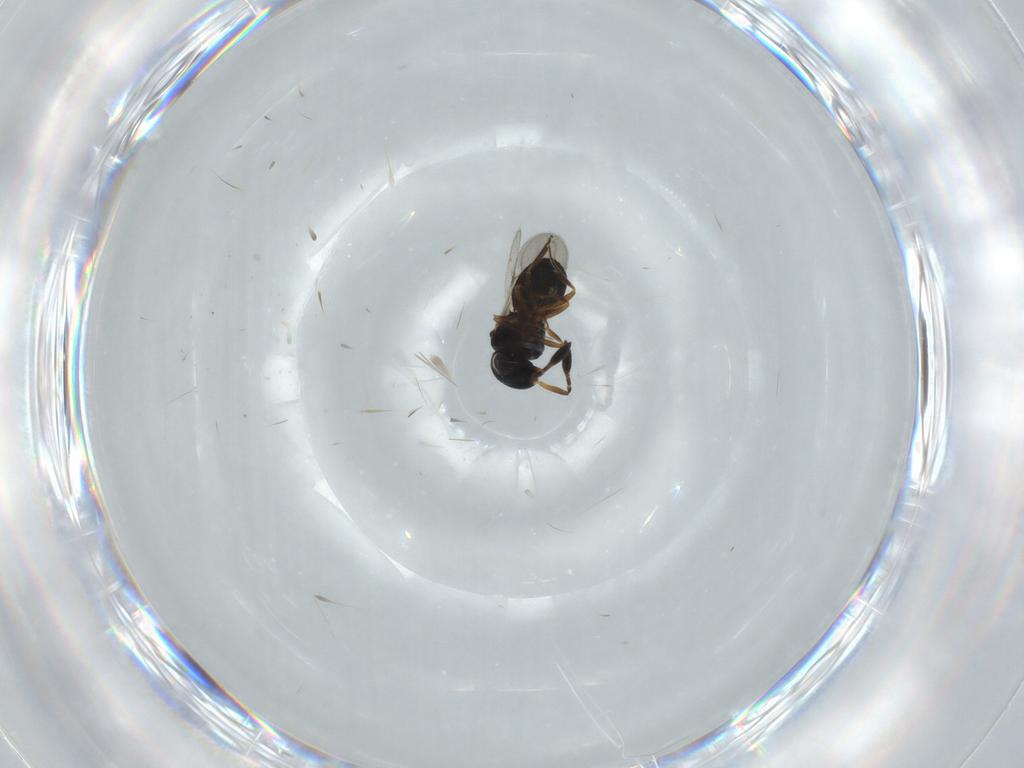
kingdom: Animalia
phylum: Arthropoda
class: Insecta
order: Hymenoptera
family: Scelionidae
